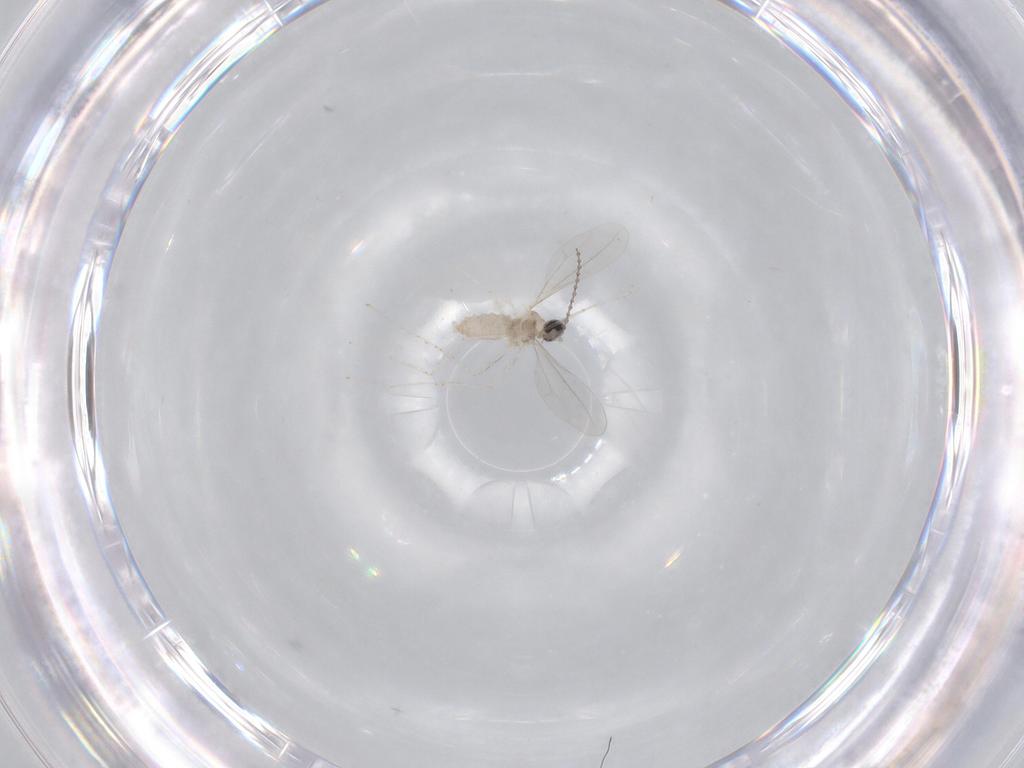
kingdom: Animalia
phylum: Arthropoda
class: Insecta
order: Diptera
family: Cecidomyiidae
